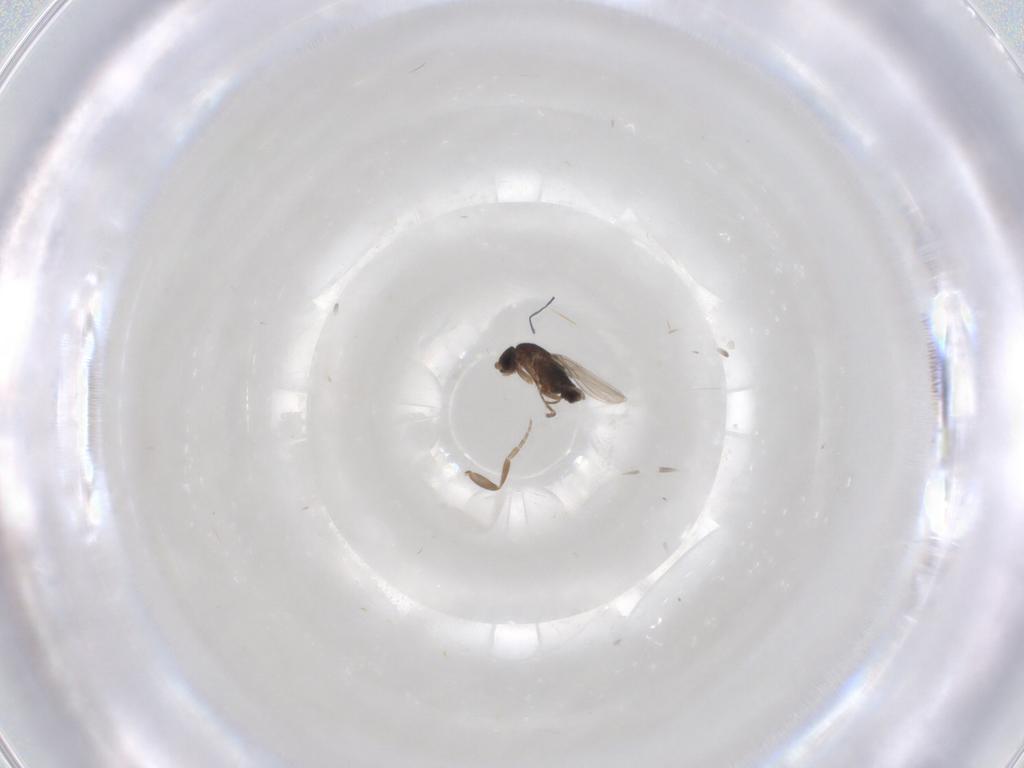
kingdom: Animalia
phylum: Arthropoda
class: Insecta
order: Diptera
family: Phoridae
